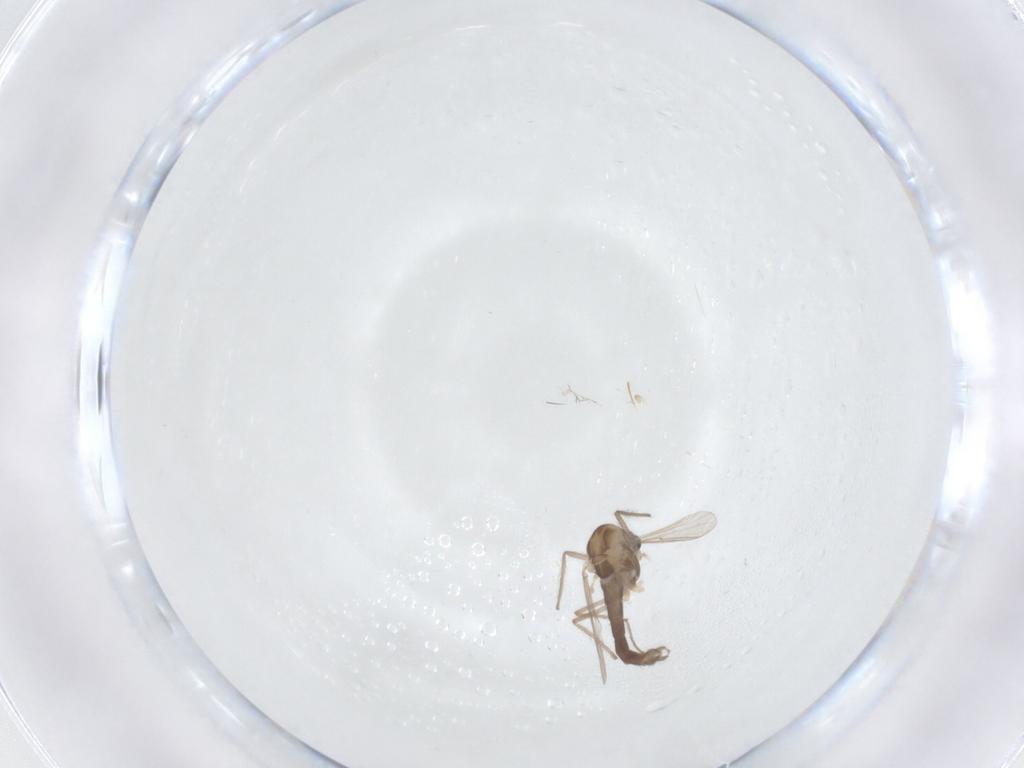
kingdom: Animalia
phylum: Arthropoda
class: Insecta
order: Diptera
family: Chironomidae
